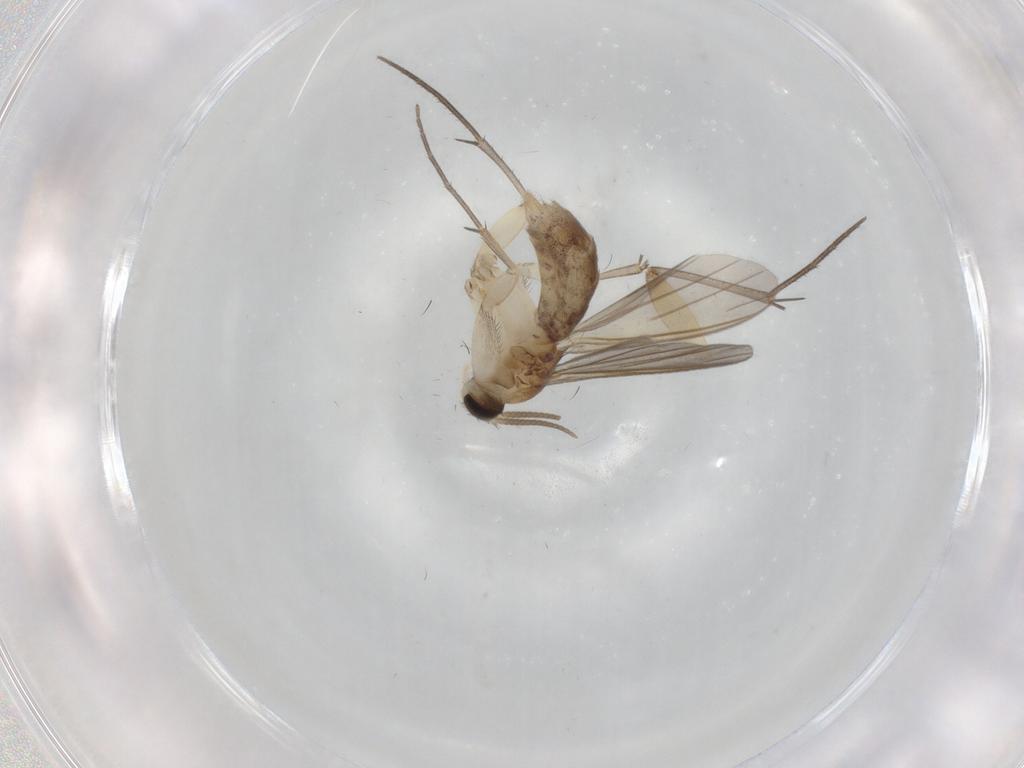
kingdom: Animalia
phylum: Arthropoda
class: Insecta
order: Diptera
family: Mycetophilidae
